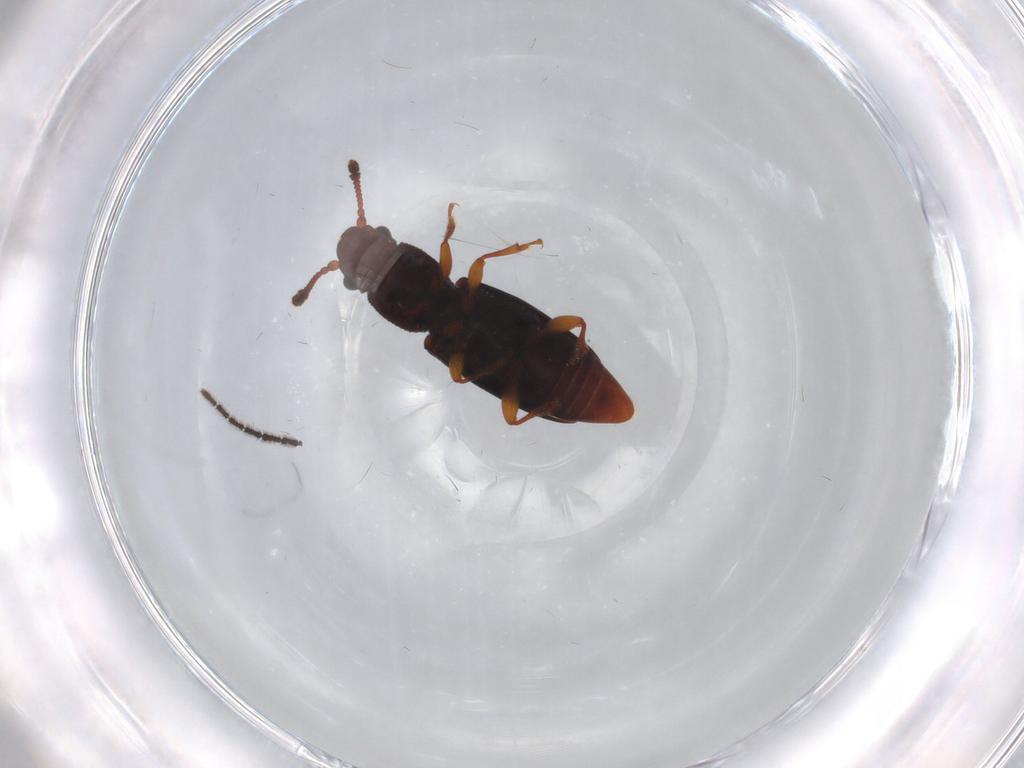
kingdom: Animalia
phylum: Arthropoda
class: Insecta
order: Coleoptera
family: Monotomidae
